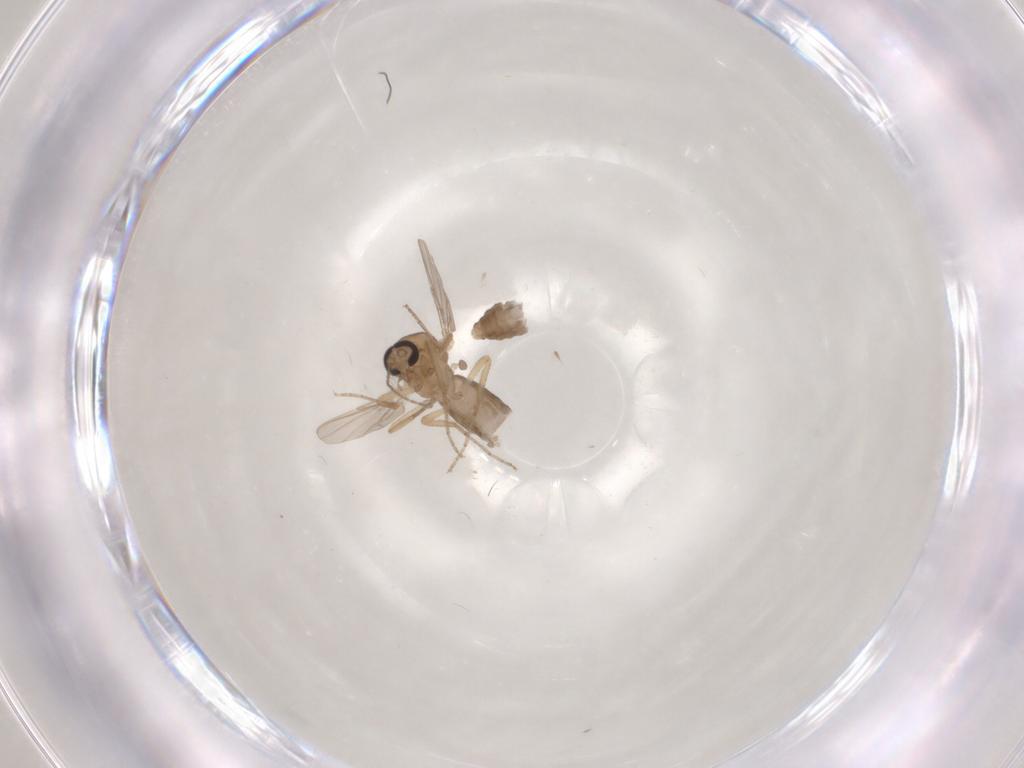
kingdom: Animalia
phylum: Arthropoda
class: Insecta
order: Diptera
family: Ceratopogonidae
